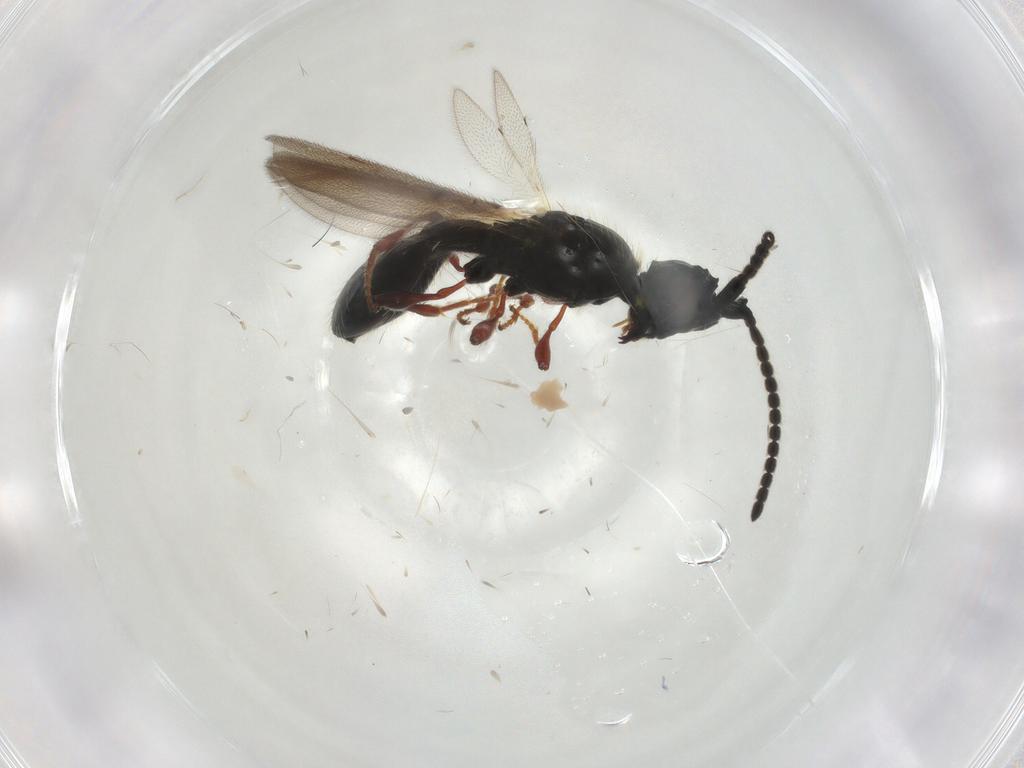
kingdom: Animalia
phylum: Arthropoda
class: Insecta
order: Hymenoptera
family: Diapriidae
